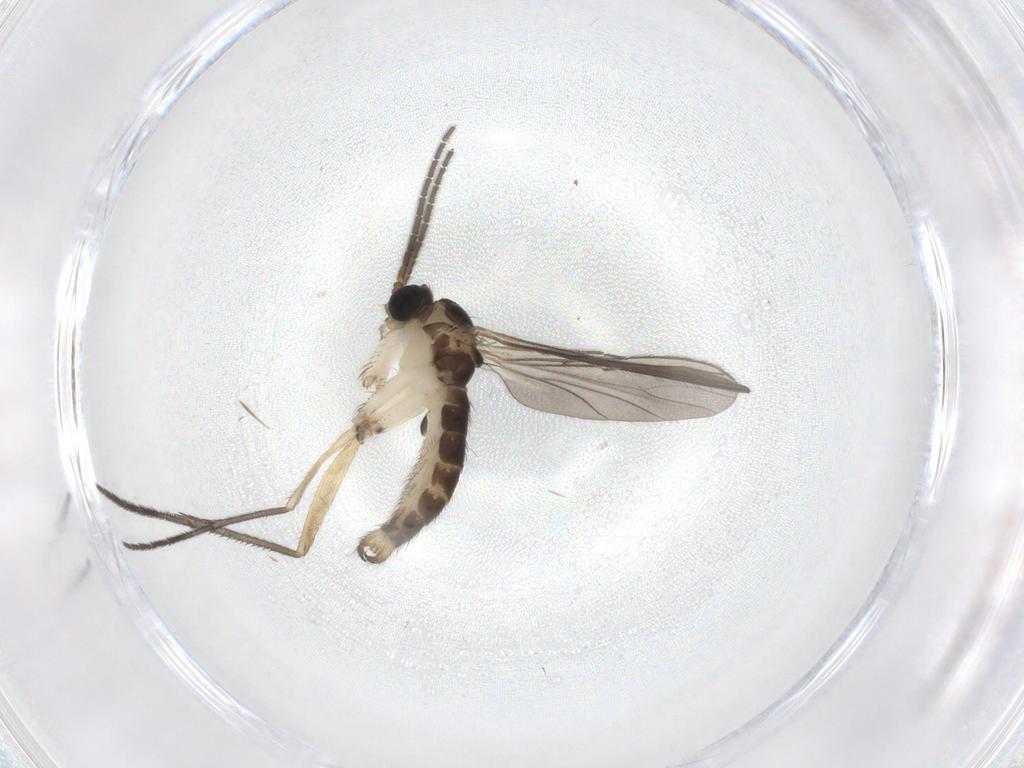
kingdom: Animalia
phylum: Arthropoda
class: Insecta
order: Diptera
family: Sciaridae
